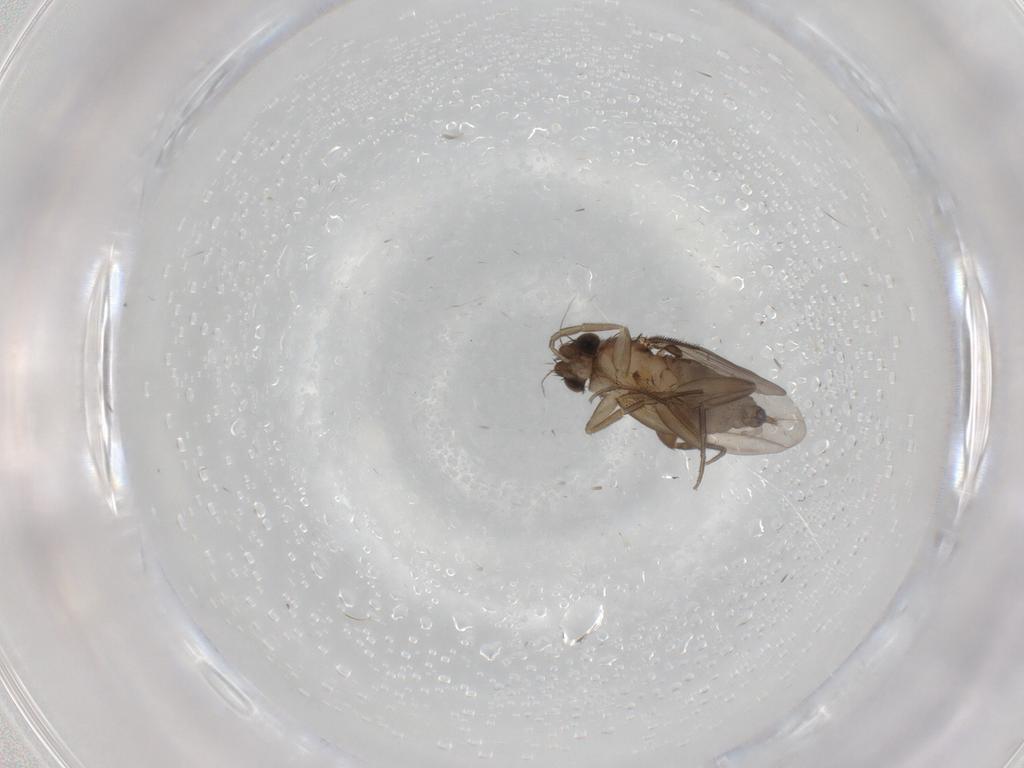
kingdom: Animalia
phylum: Arthropoda
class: Insecta
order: Diptera
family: Phoridae
